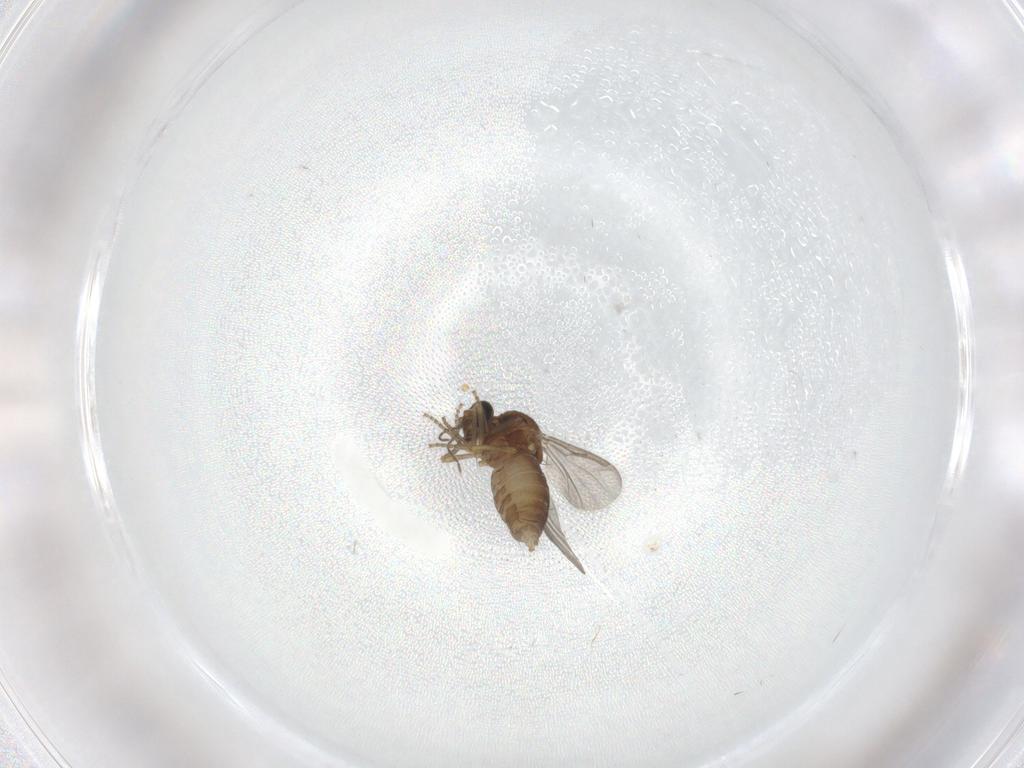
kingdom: Animalia
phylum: Arthropoda
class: Insecta
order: Diptera
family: Ceratopogonidae
